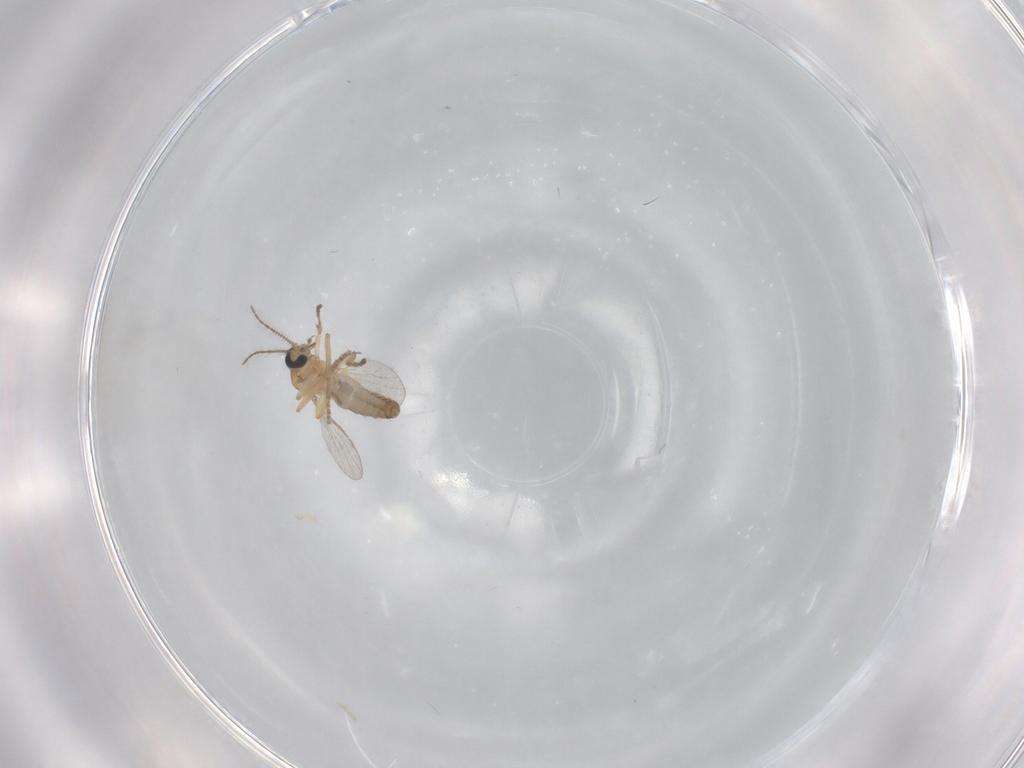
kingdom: Animalia
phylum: Arthropoda
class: Insecta
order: Diptera
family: Ceratopogonidae
